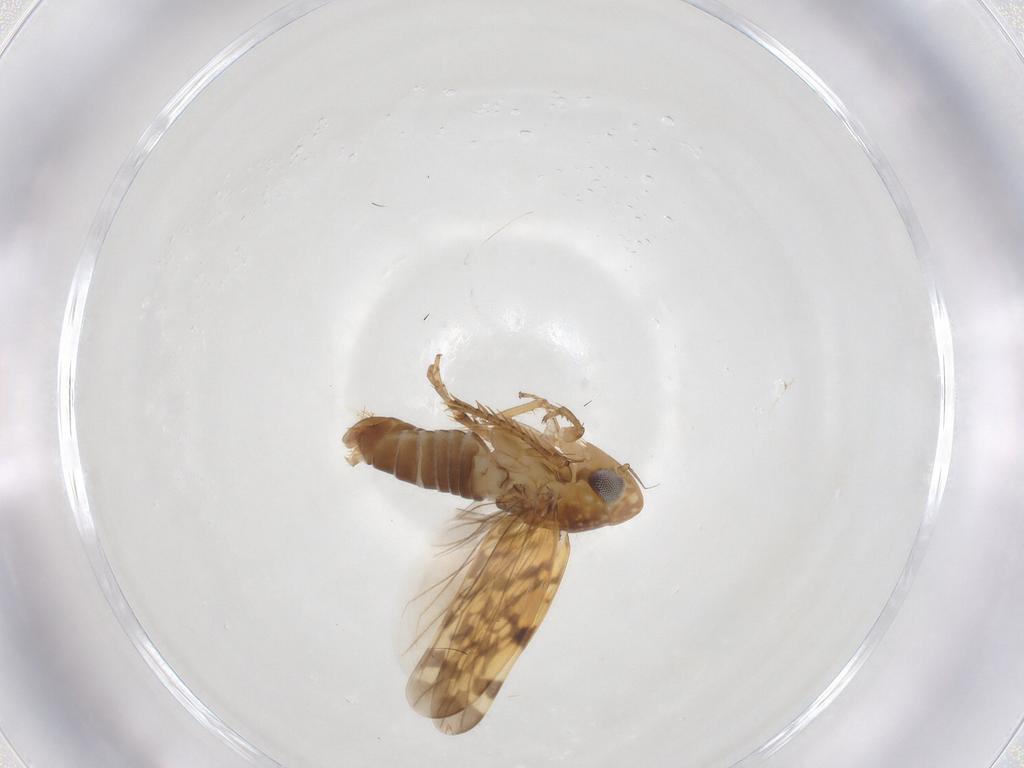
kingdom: Animalia
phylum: Arthropoda
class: Insecta
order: Hemiptera
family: Cicadellidae
